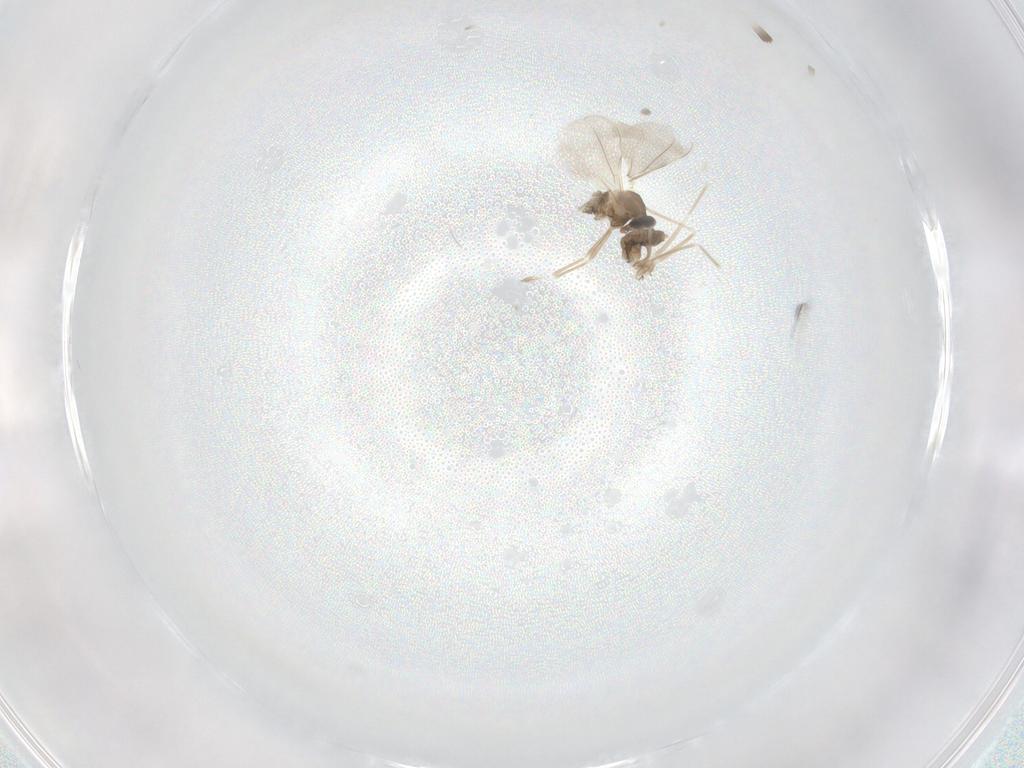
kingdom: Animalia
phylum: Arthropoda
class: Insecta
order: Diptera
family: Cecidomyiidae
